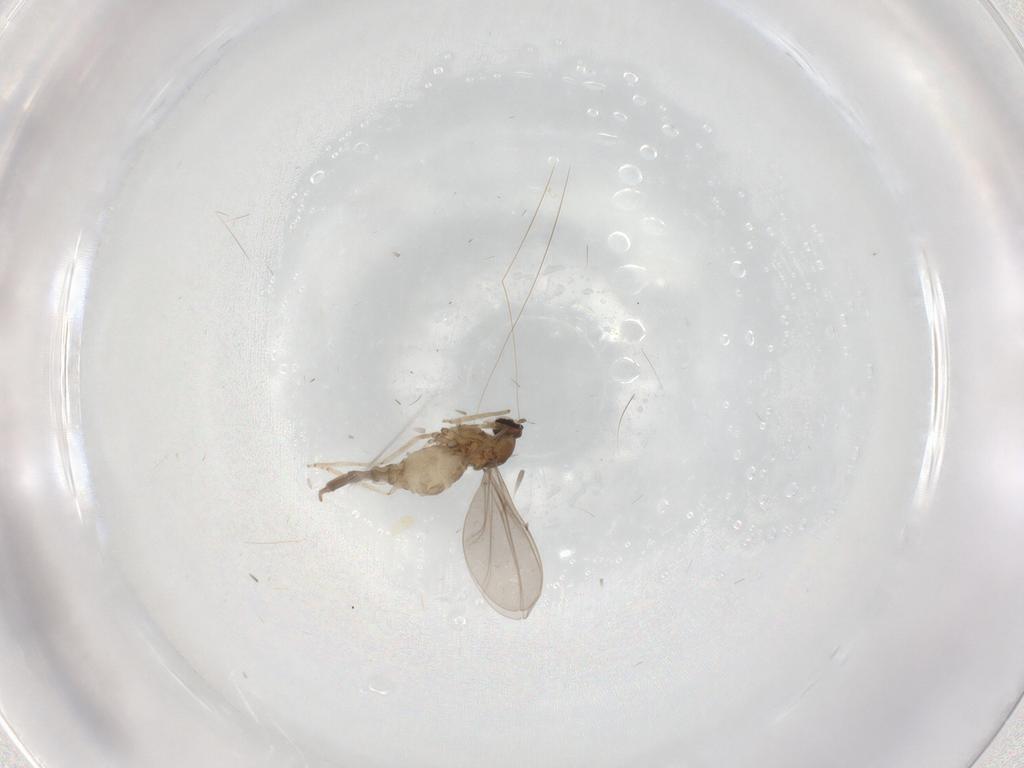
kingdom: Animalia
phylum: Arthropoda
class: Insecta
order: Diptera
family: Cecidomyiidae
